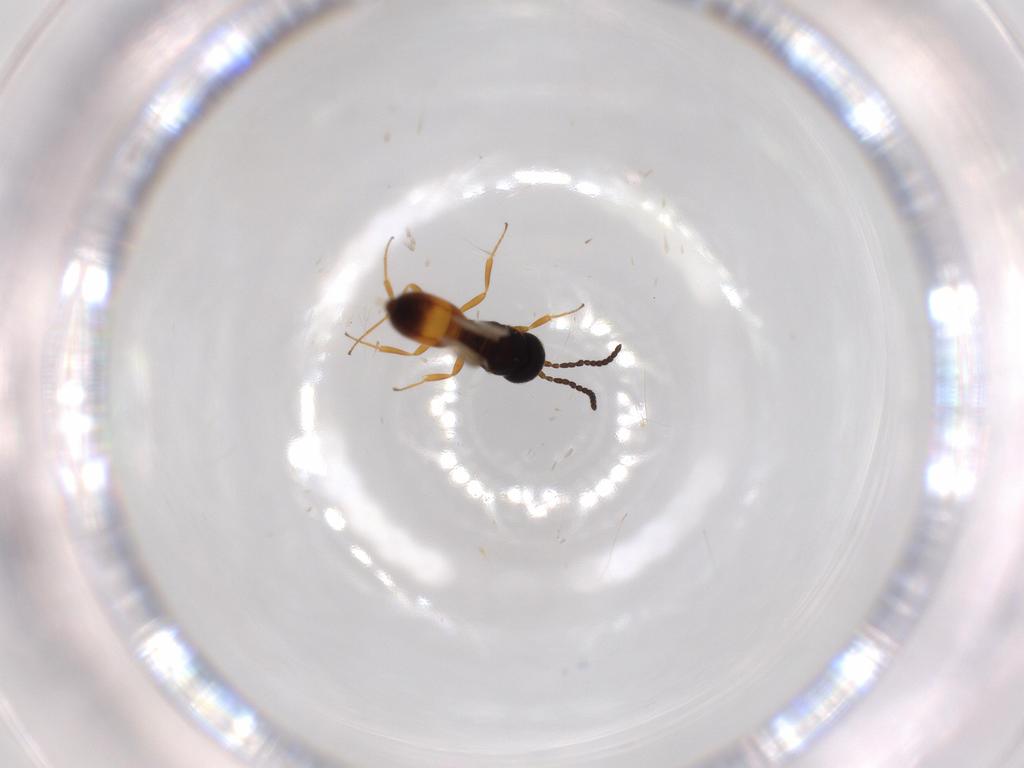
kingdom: Animalia
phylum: Arthropoda
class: Insecta
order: Hymenoptera
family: Scelionidae
